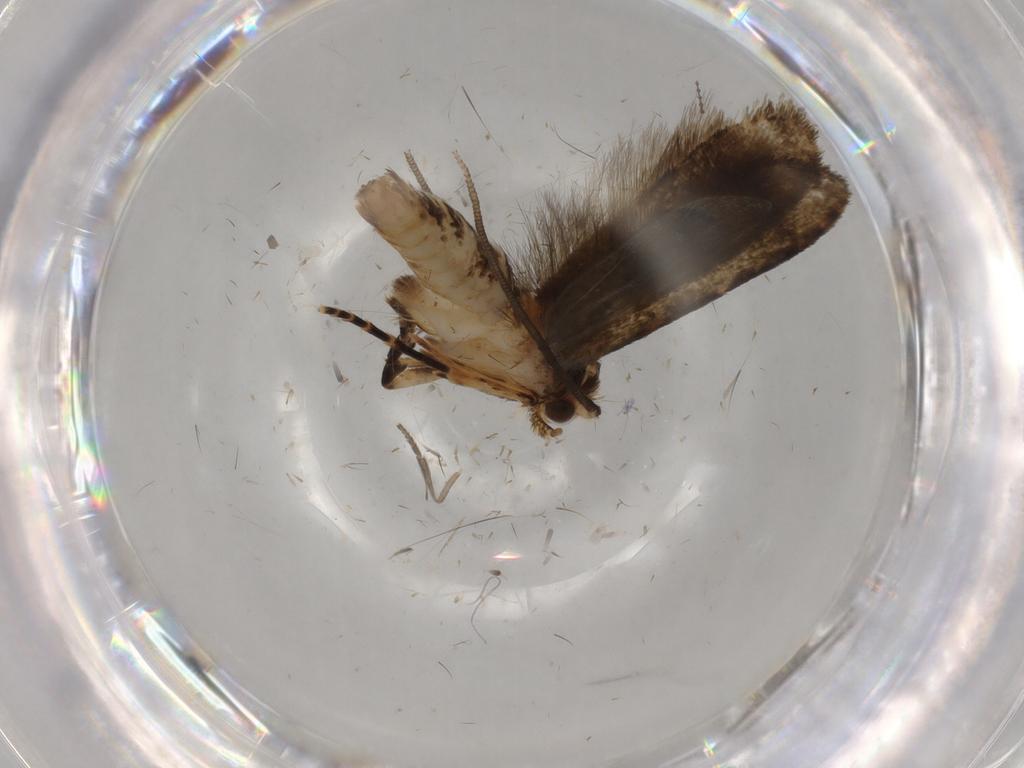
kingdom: Animalia
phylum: Arthropoda
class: Insecta
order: Lepidoptera
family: Tineidae
